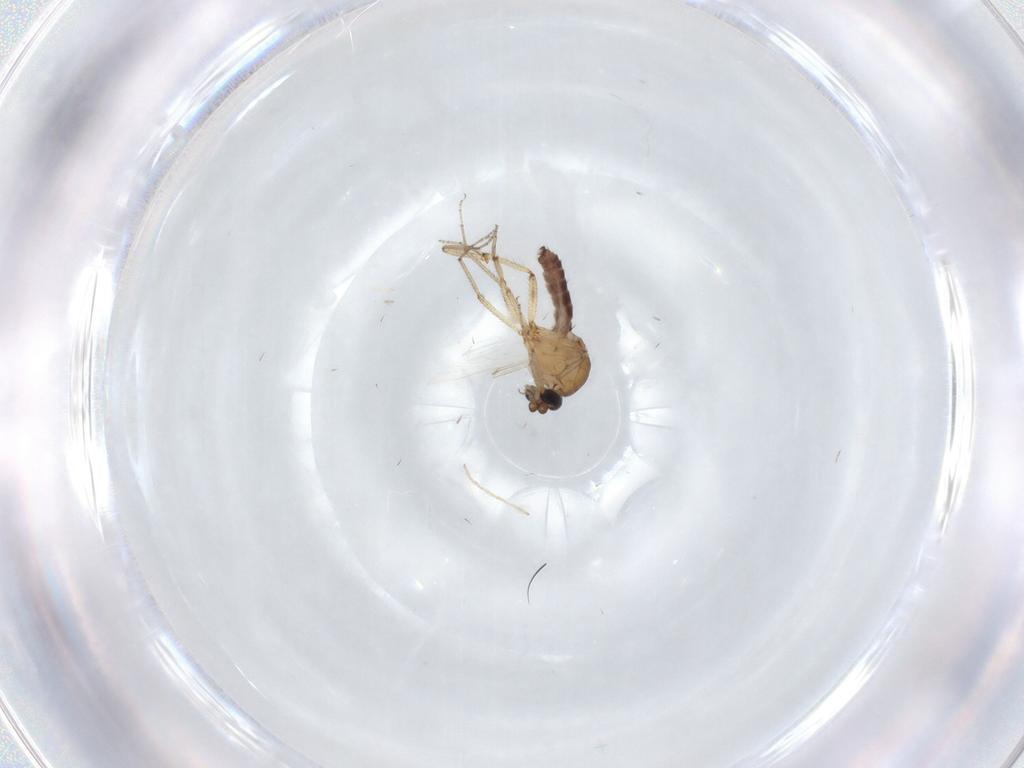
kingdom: Animalia
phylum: Arthropoda
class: Insecta
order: Diptera
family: Ceratopogonidae
